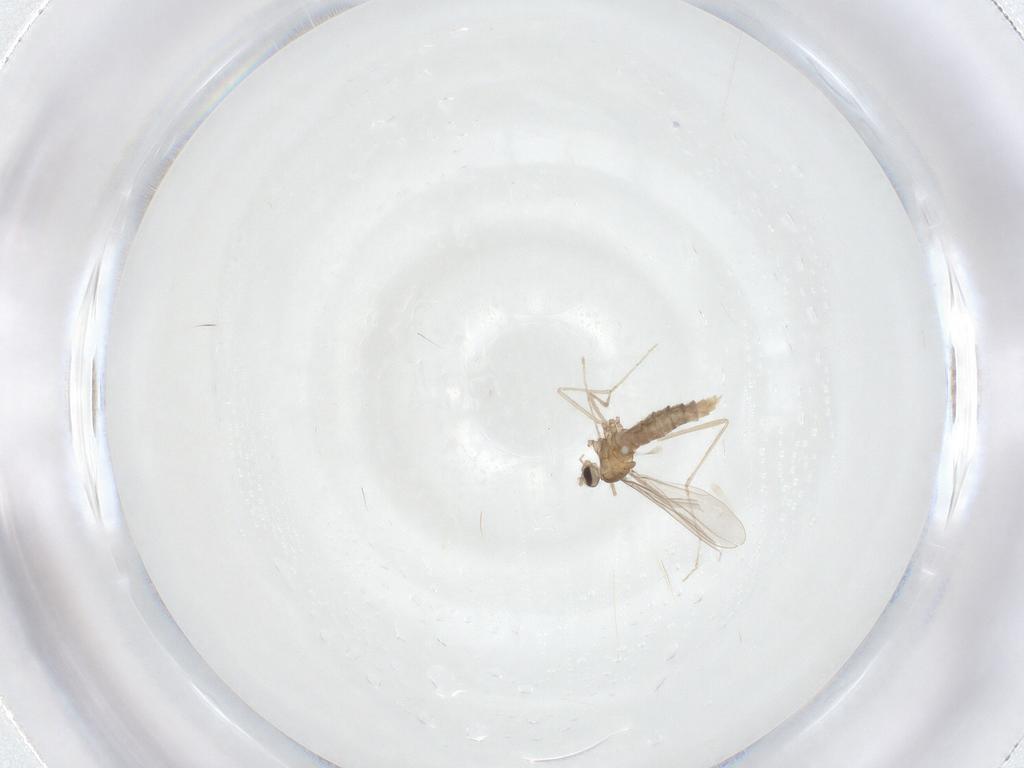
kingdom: Animalia
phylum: Arthropoda
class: Insecta
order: Diptera
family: Cecidomyiidae
